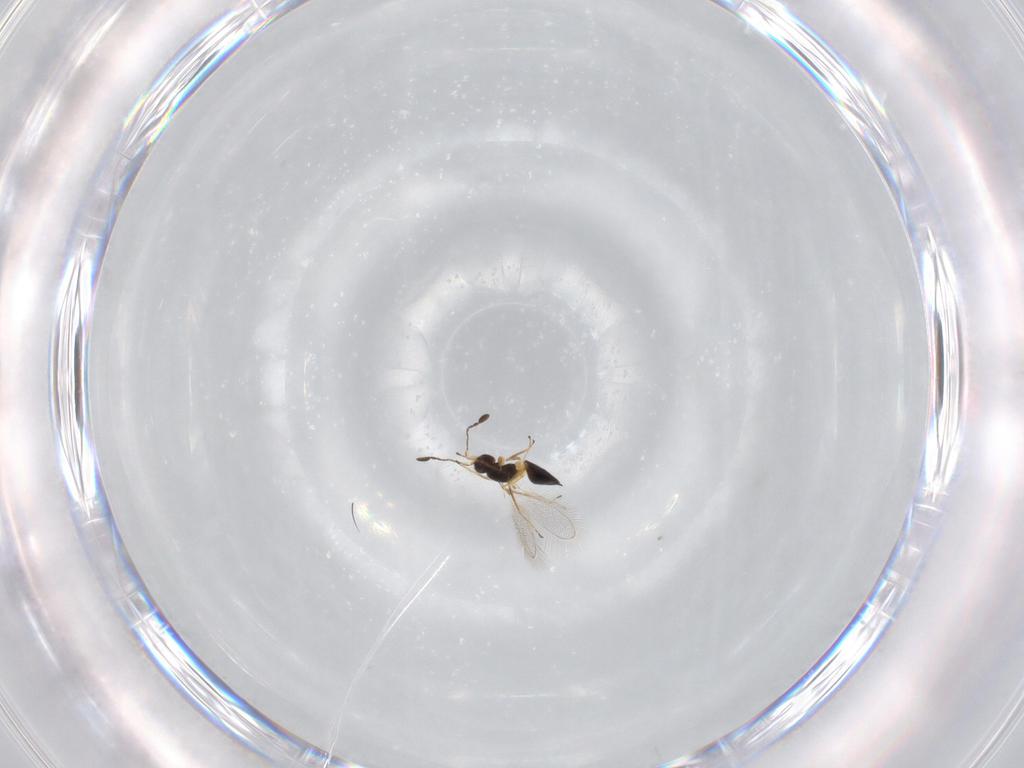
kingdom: Animalia
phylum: Arthropoda
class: Insecta
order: Hymenoptera
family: Mymaridae
